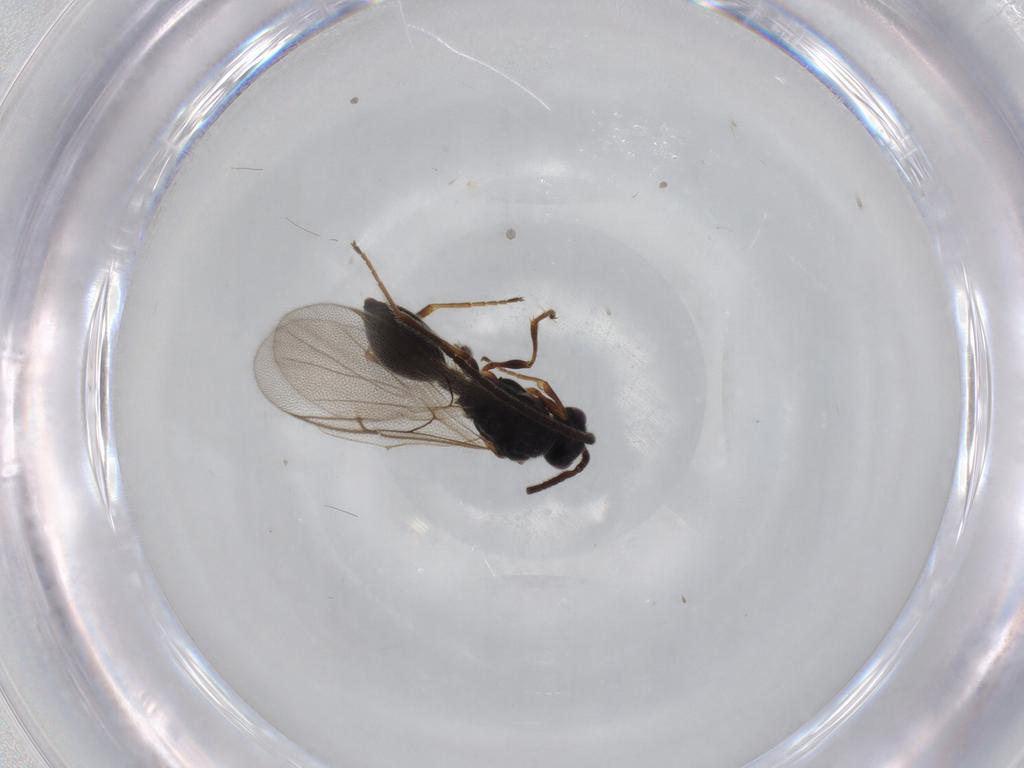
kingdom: Animalia
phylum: Arthropoda
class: Insecta
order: Hymenoptera
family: Diapriidae
